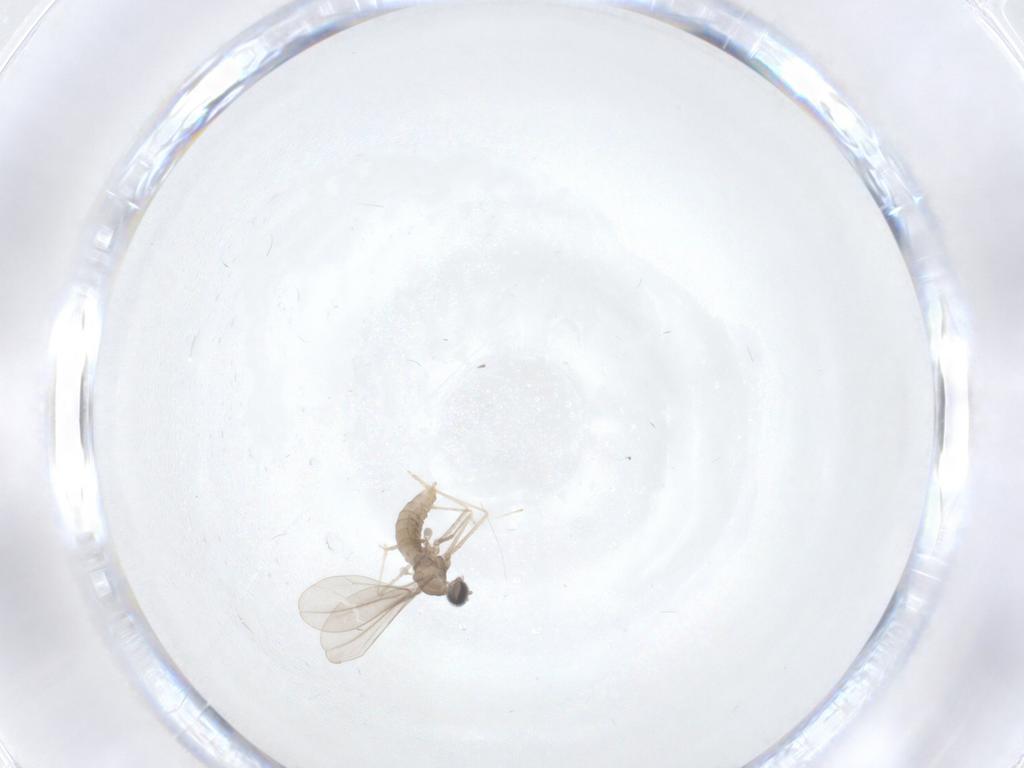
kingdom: Animalia
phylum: Arthropoda
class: Insecta
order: Diptera
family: Cecidomyiidae
